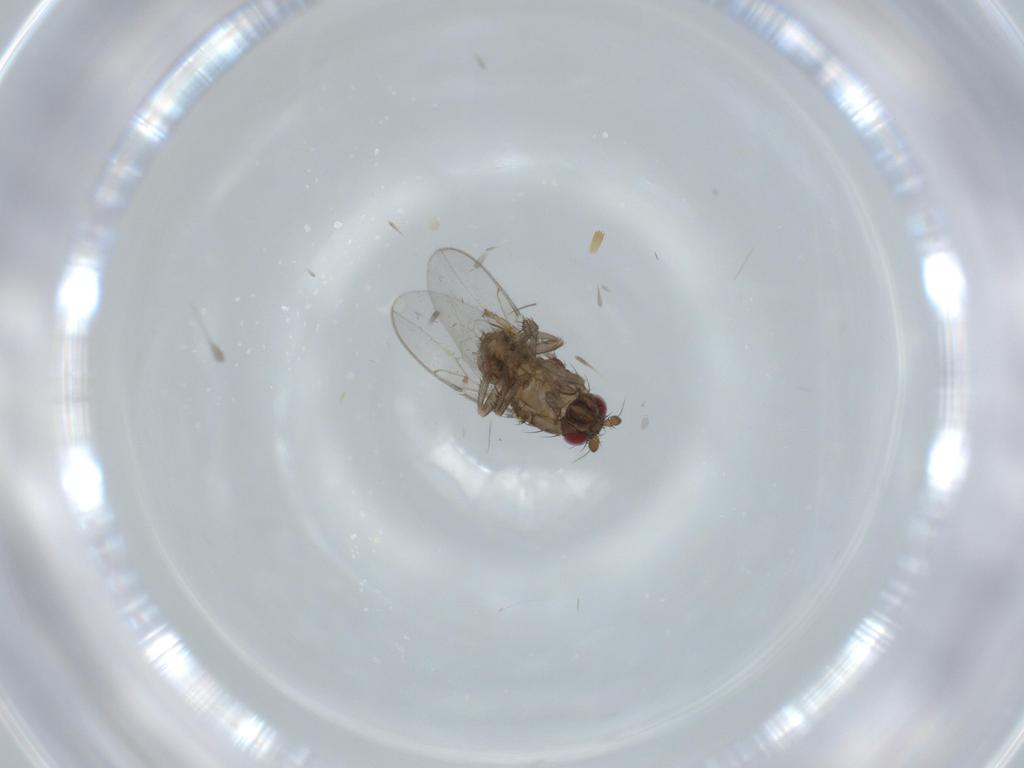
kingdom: Animalia
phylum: Arthropoda
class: Insecta
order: Diptera
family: Sphaeroceridae
